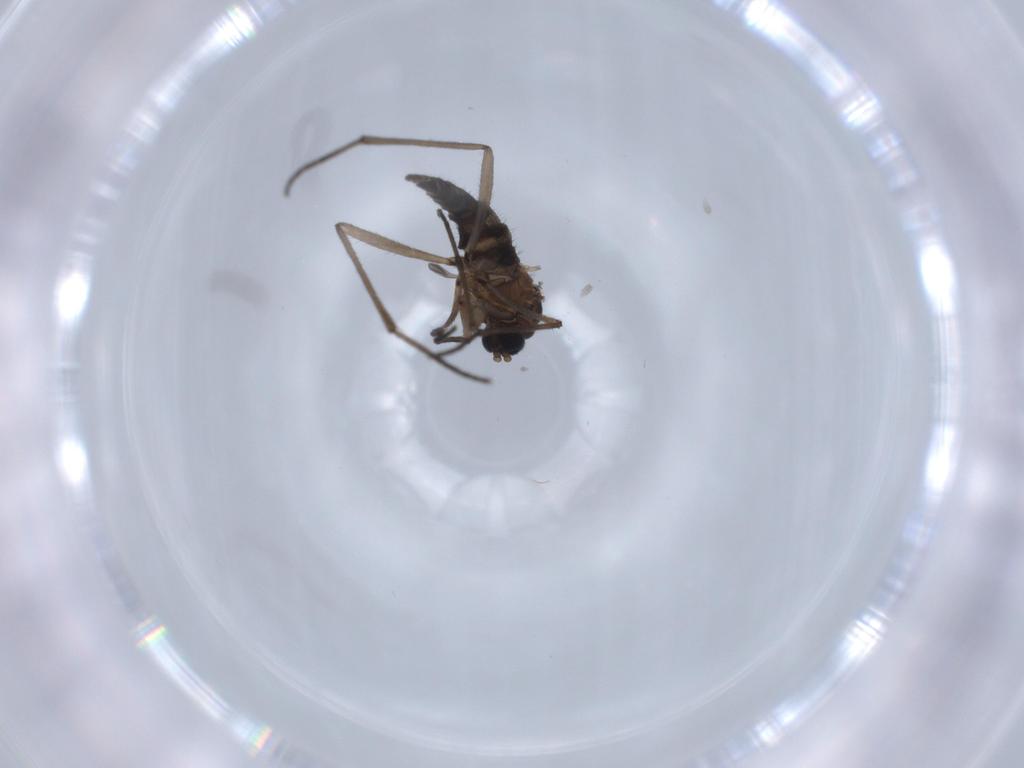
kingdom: Animalia
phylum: Arthropoda
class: Insecta
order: Diptera
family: Sciaridae
